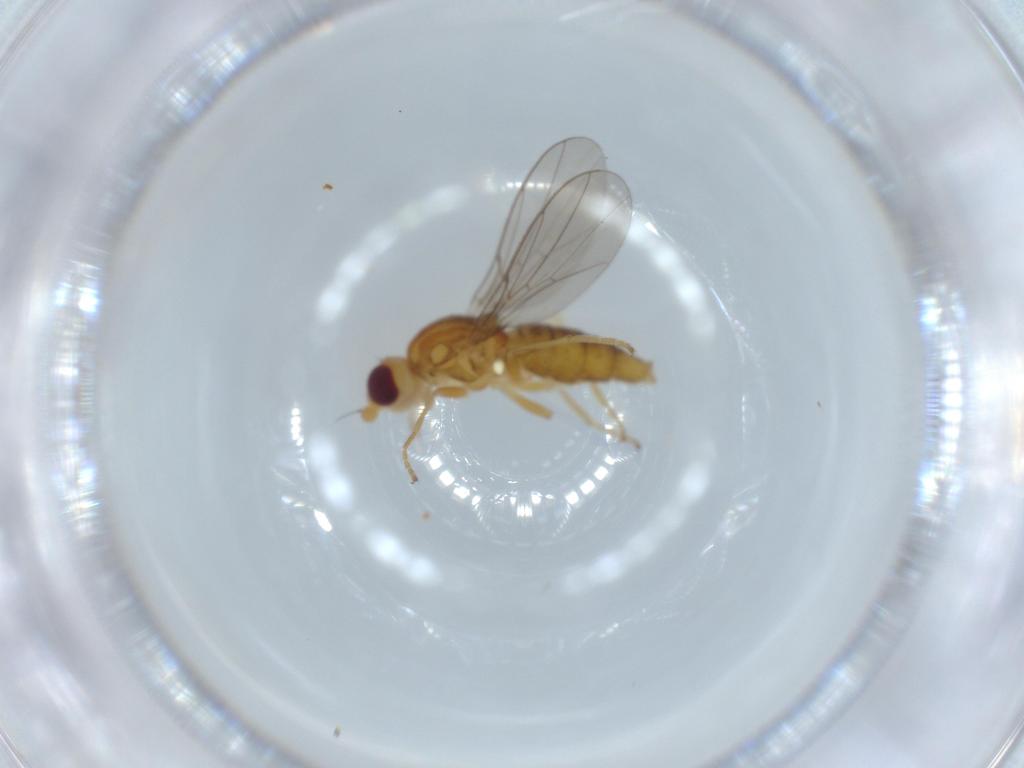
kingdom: Animalia
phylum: Arthropoda
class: Insecta
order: Diptera
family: Chloropidae
